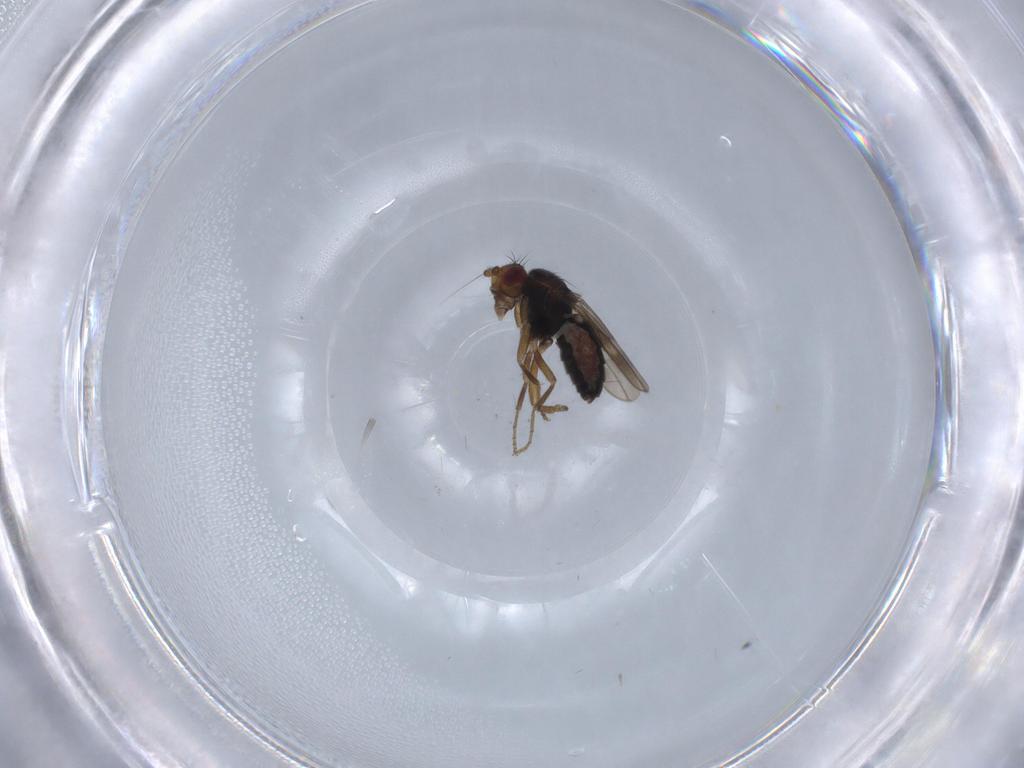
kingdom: Animalia
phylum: Arthropoda
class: Insecta
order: Diptera
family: Sphaeroceridae
